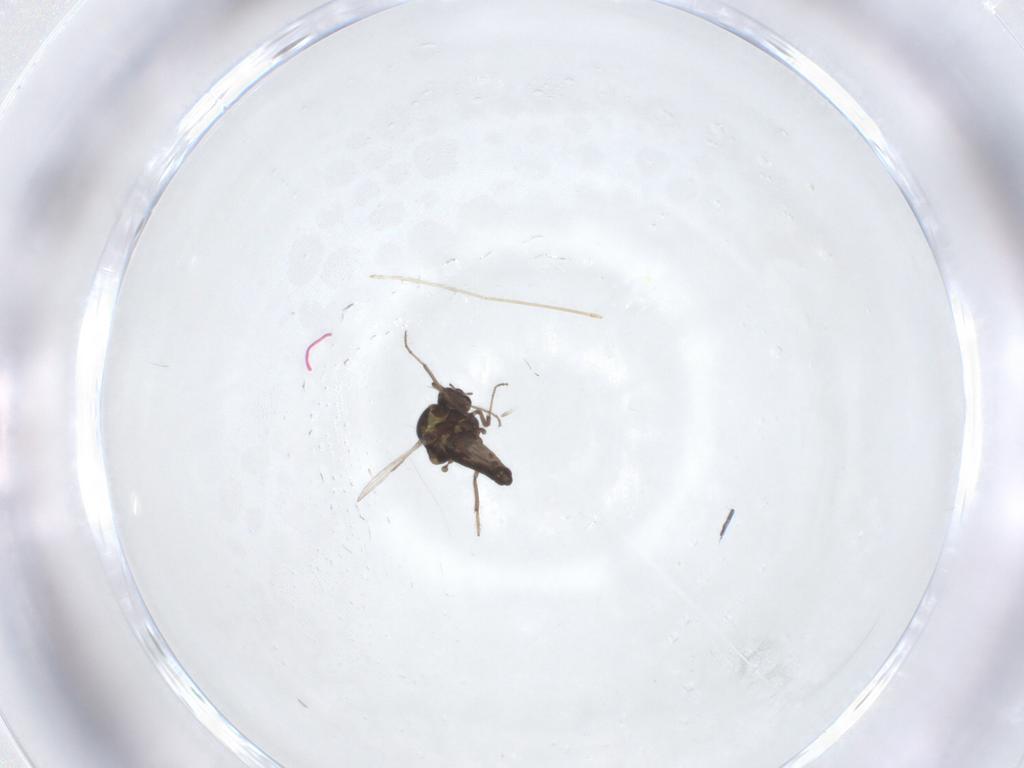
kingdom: Animalia
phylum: Arthropoda
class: Insecta
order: Diptera
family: Ceratopogonidae
